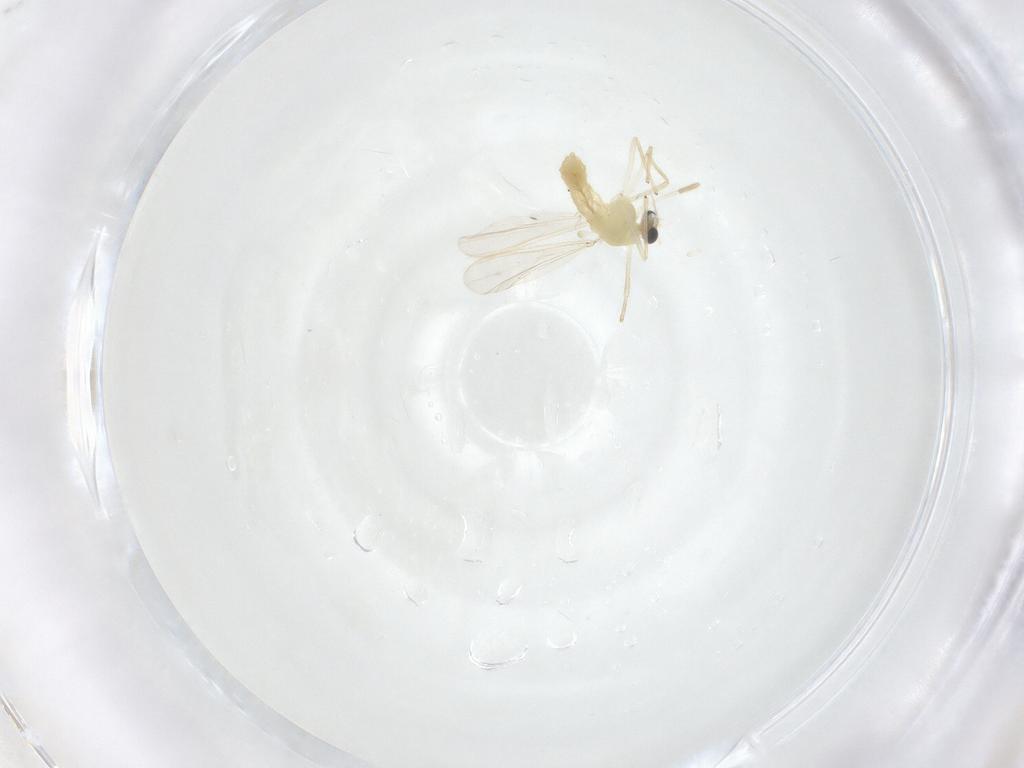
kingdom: Animalia
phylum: Arthropoda
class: Insecta
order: Diptera
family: Chironomidae
